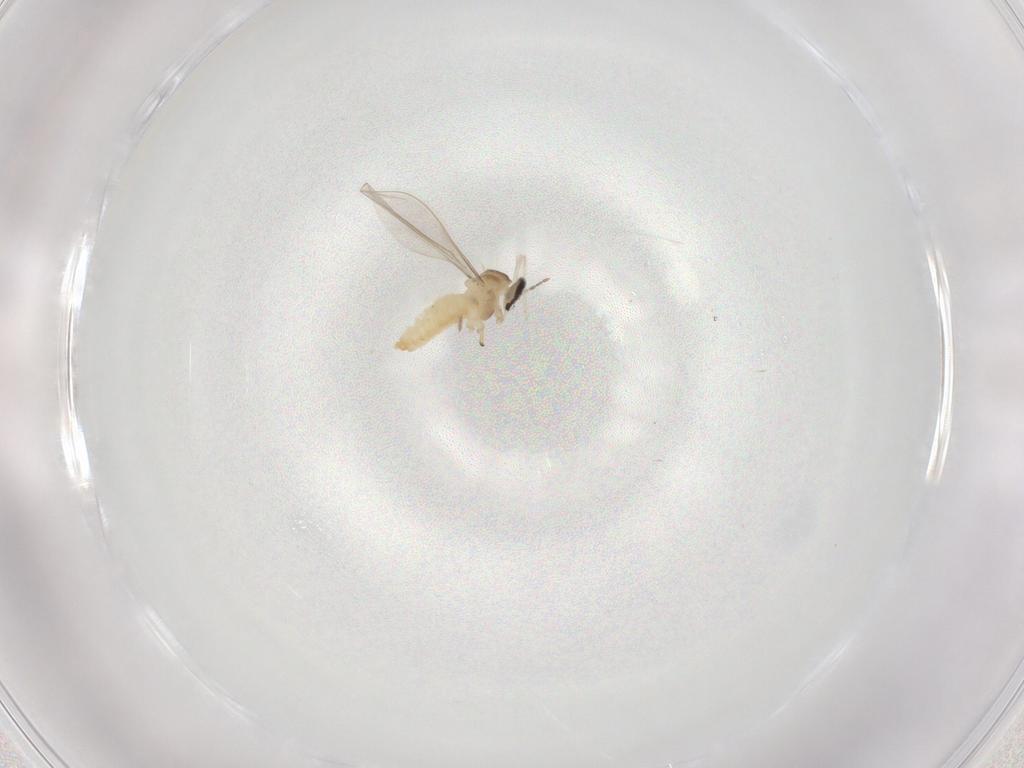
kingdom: Animalia
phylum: Arthropoda
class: Insecta
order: Diptera
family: Cecidomyiidae
